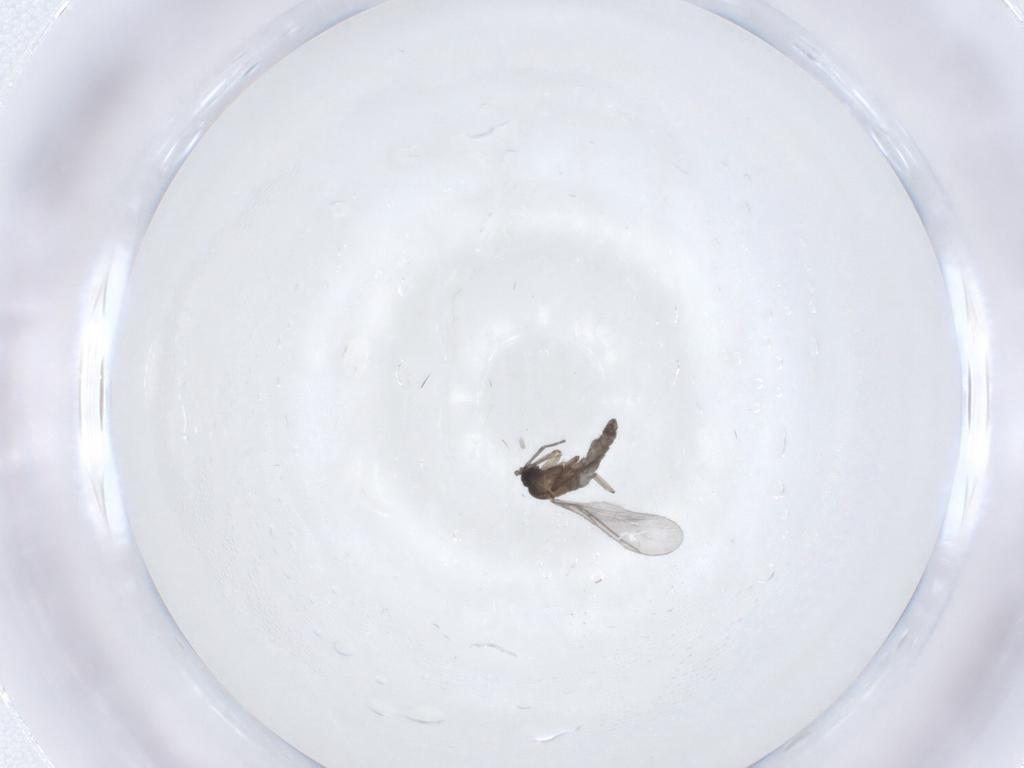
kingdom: Animalia
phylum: Arthropoda
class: Insecta
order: Diptera
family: Sciaridae
